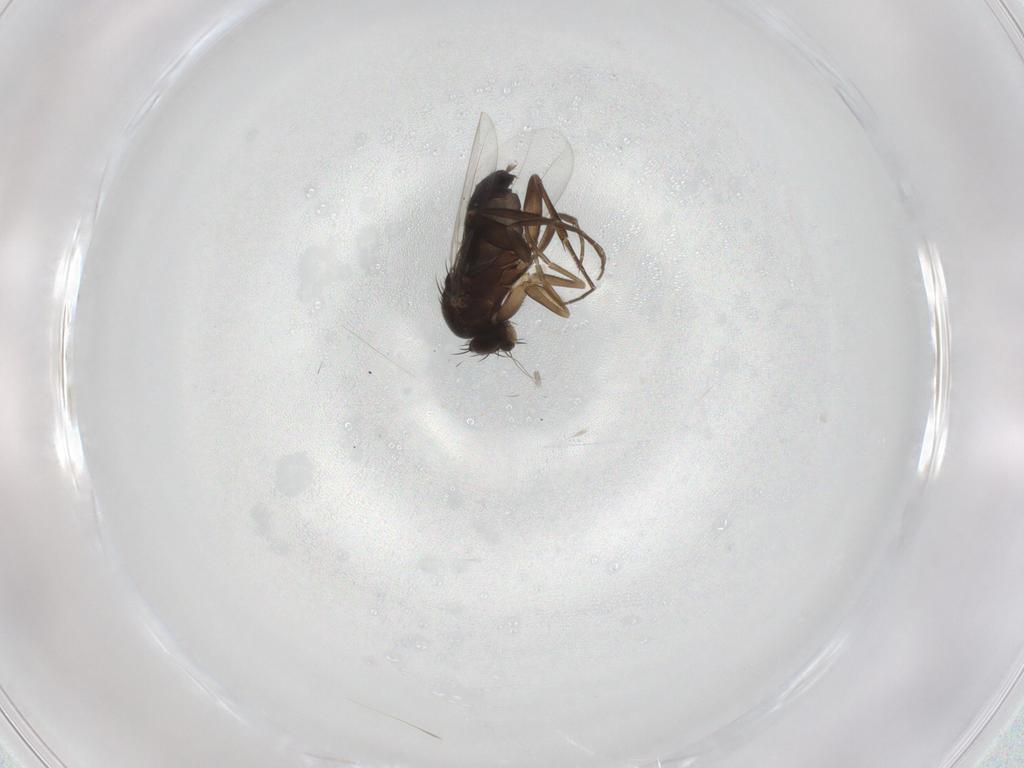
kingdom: Animalia
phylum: Arthropoda
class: Insecta
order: Diptera
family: Phoridae
